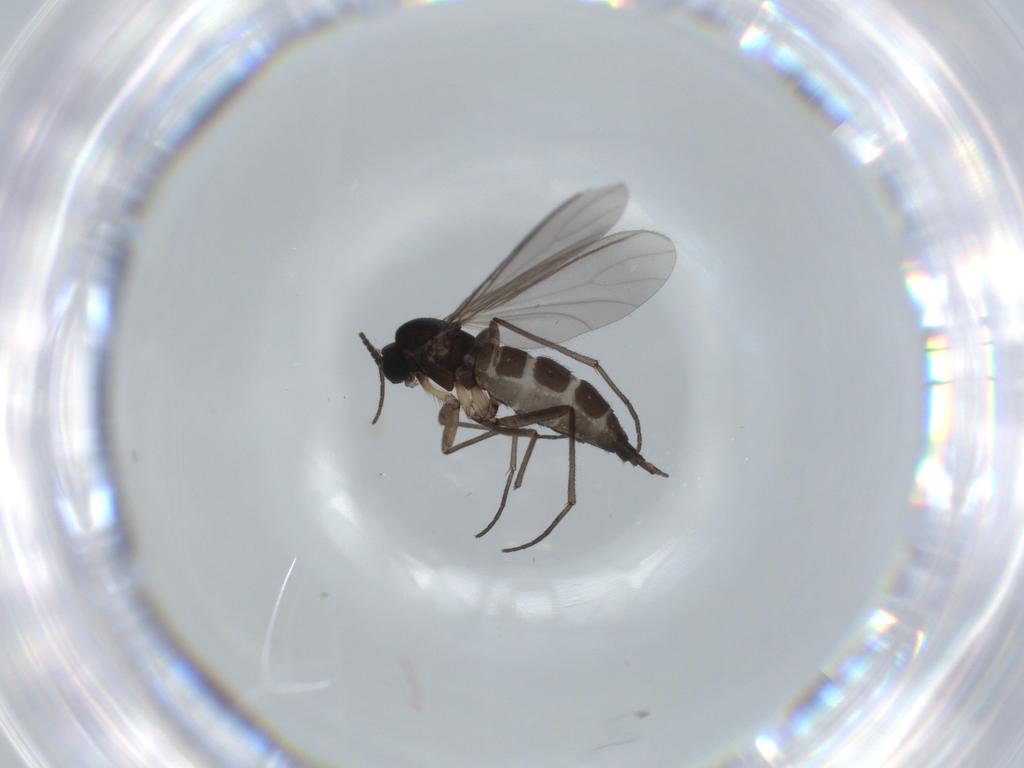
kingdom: Animalia
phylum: Arthropoda
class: Insecta
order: Diptera
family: Sciaridae
